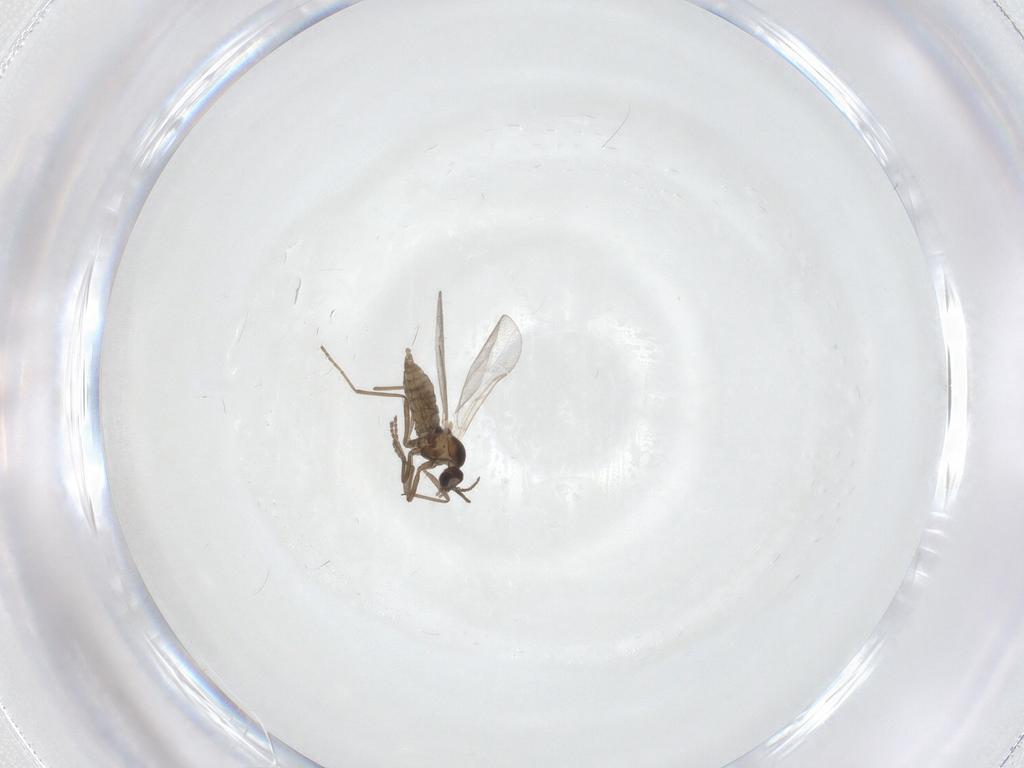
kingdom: Animalia
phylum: Arthropoda
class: Insecta
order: Diptera
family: Cecidomyiidae
